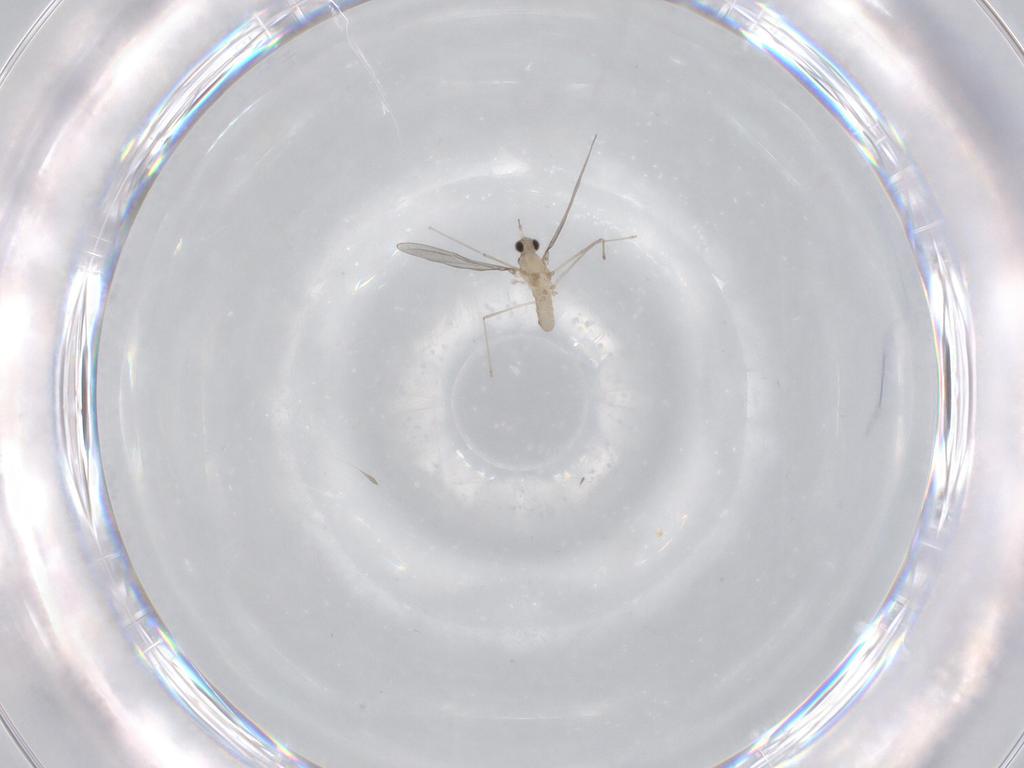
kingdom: Animalia
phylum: Arthropoda
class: Insecta
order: Diptera
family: Cecidomyiidae
